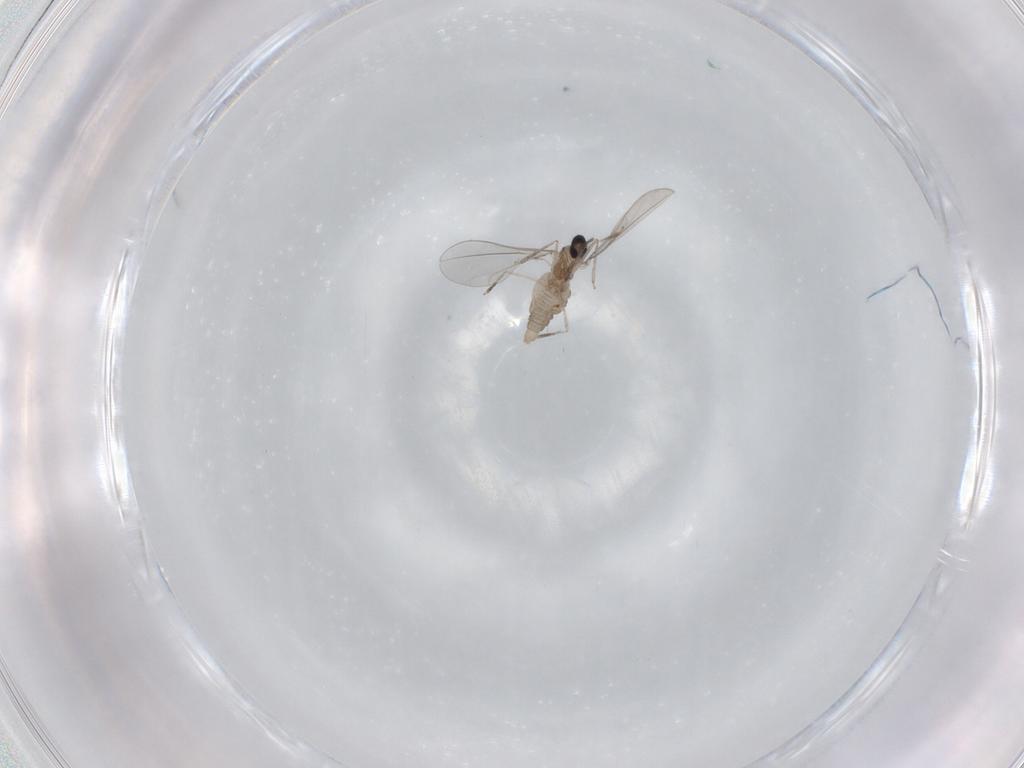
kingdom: Animalia
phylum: Arthropoda
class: Insecta
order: Diptera
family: Cecidomyiidae
